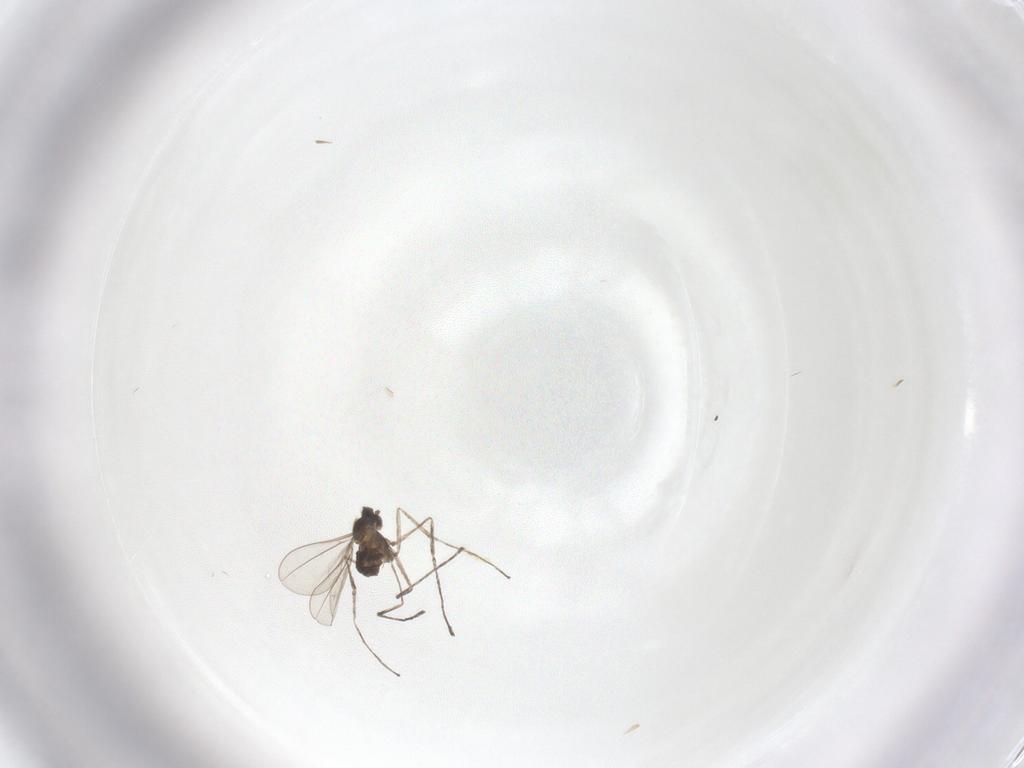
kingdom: Animalia
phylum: Arthropoda
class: Insecta
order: Diptera
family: Cecidomyiidae
